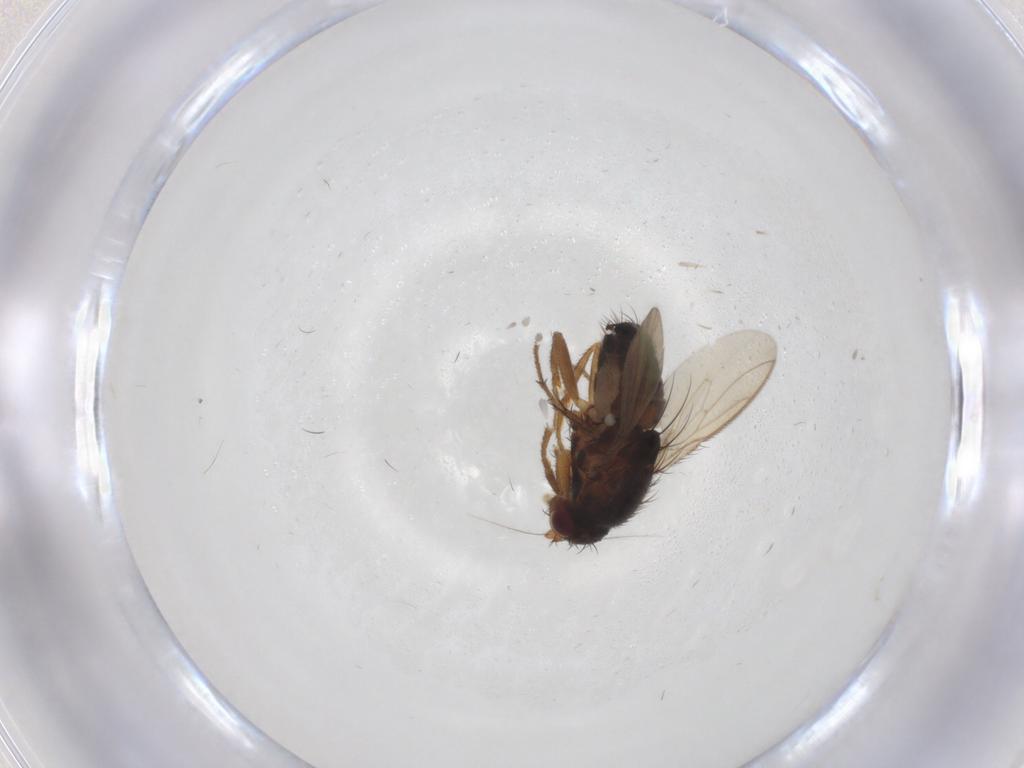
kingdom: Animalia
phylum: Arthropoda
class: Insecta
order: Diptera
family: Sphaeroceridae
